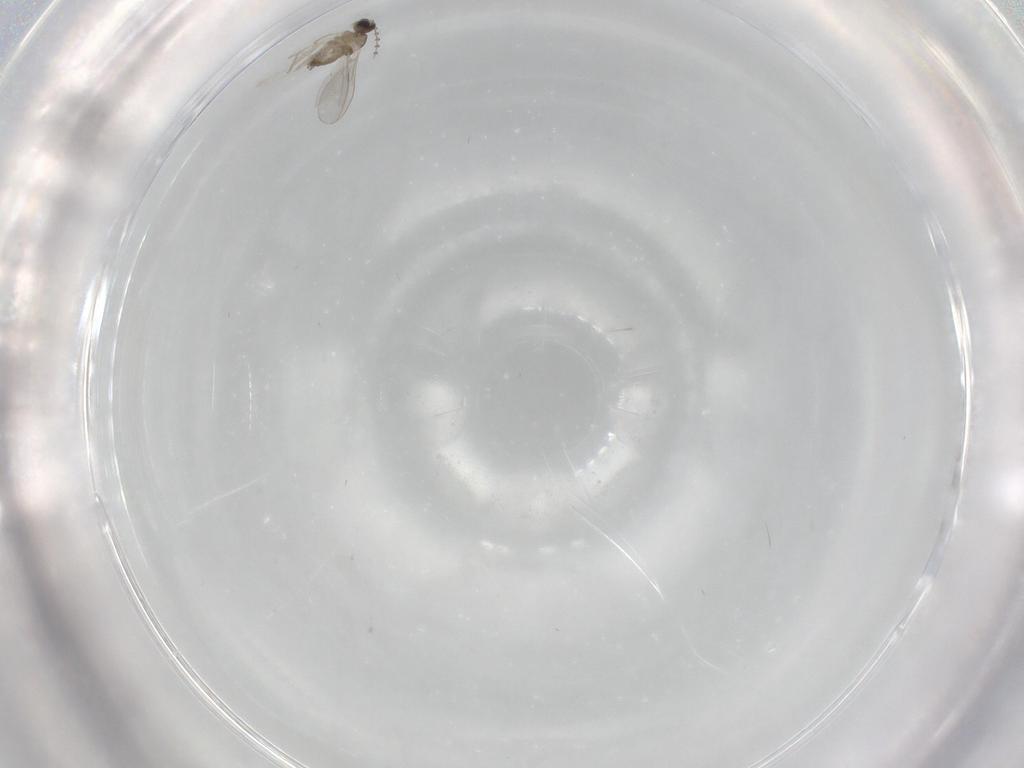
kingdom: Animalia
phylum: Arthropoda
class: Insecta
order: Diptera
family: Cecidomyiidae
